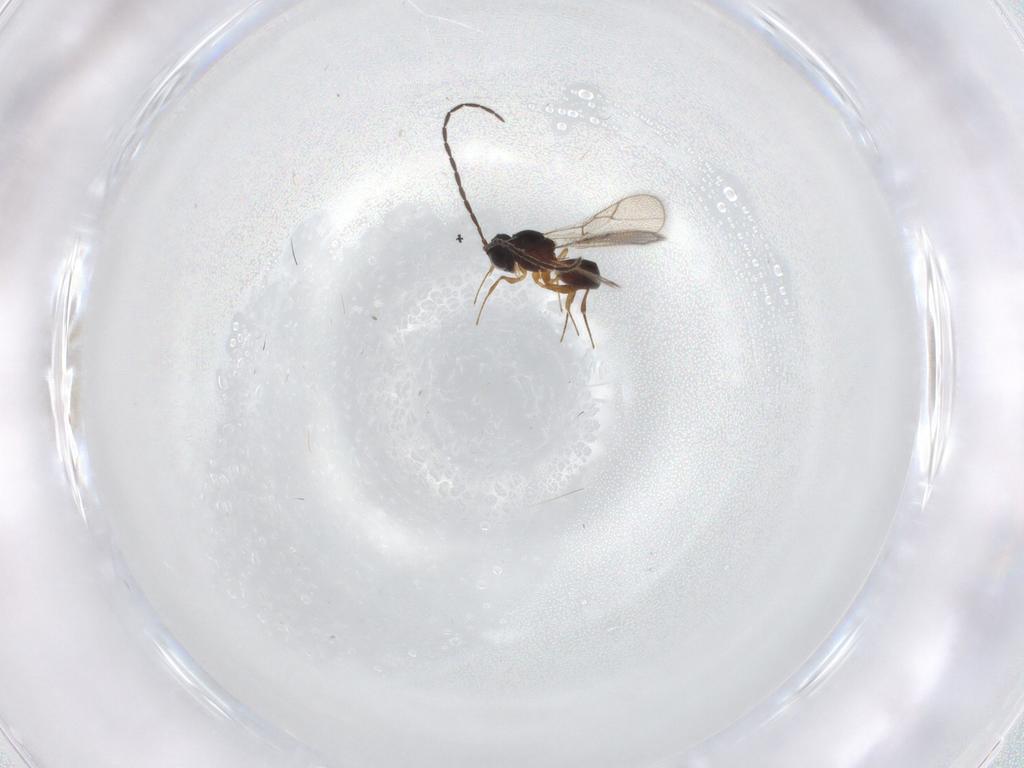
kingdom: Animalia
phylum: Arthropoda
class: Insecta
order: Hymenoptera
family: Figitidae
